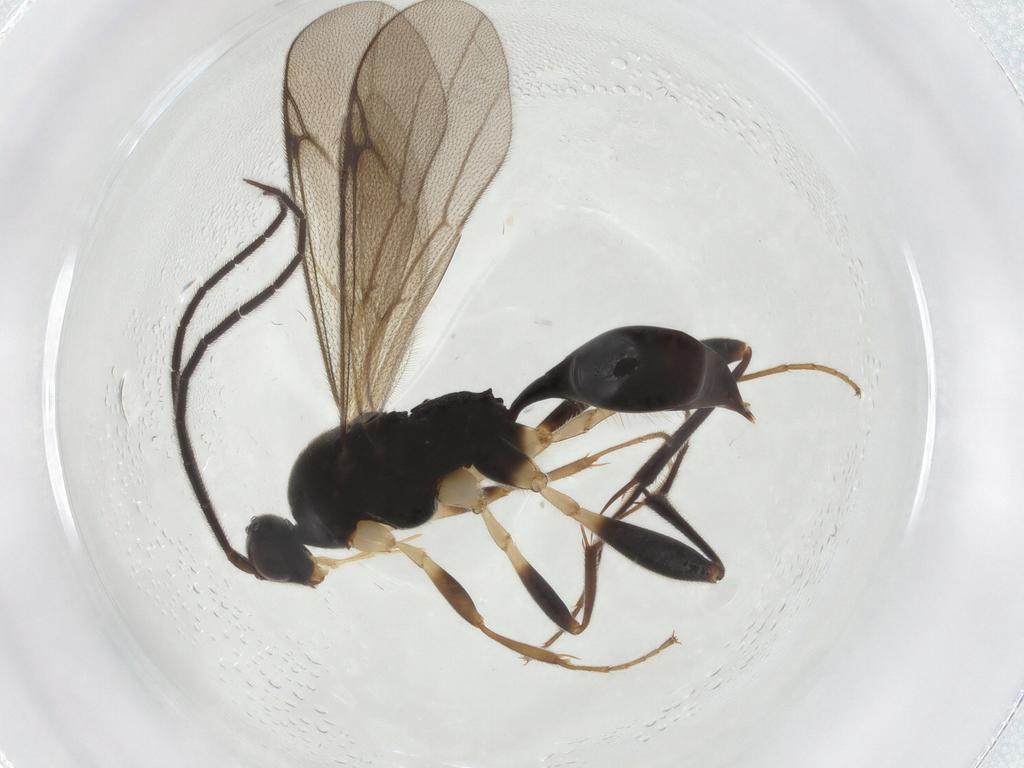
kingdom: Animalia
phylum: Arthropoda
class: Insecta
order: Hymenoptera
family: Proctotrupidae
